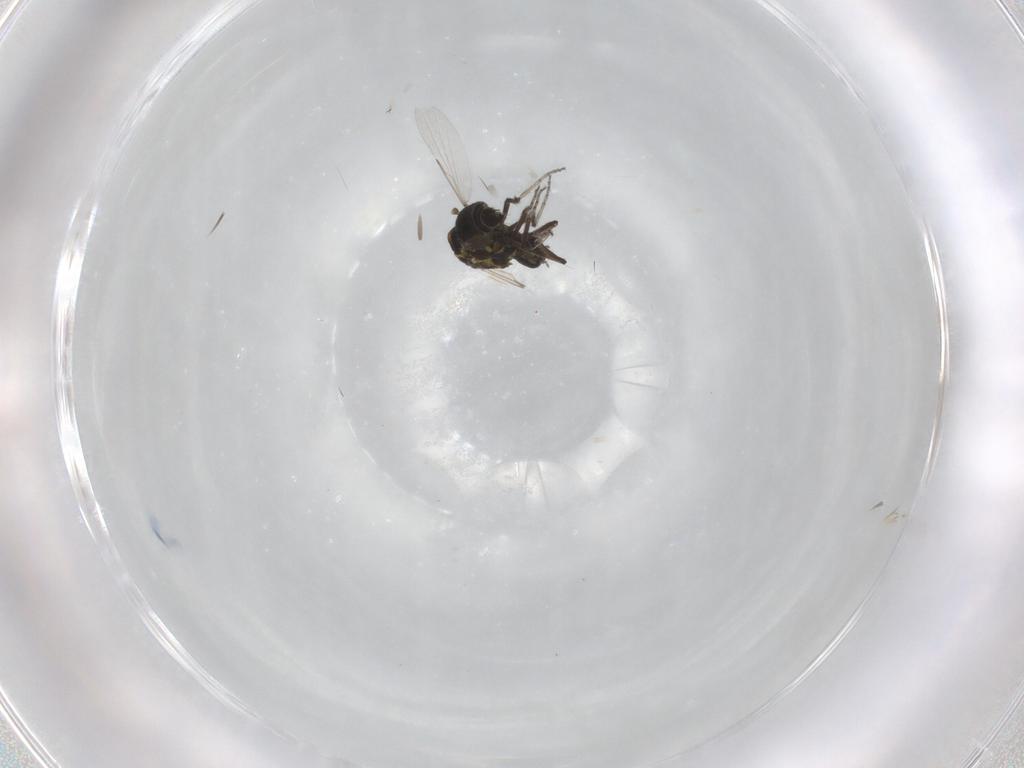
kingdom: Animalia
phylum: Arthropoda
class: Insecta
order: Diptera
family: Ceratopogonidae
